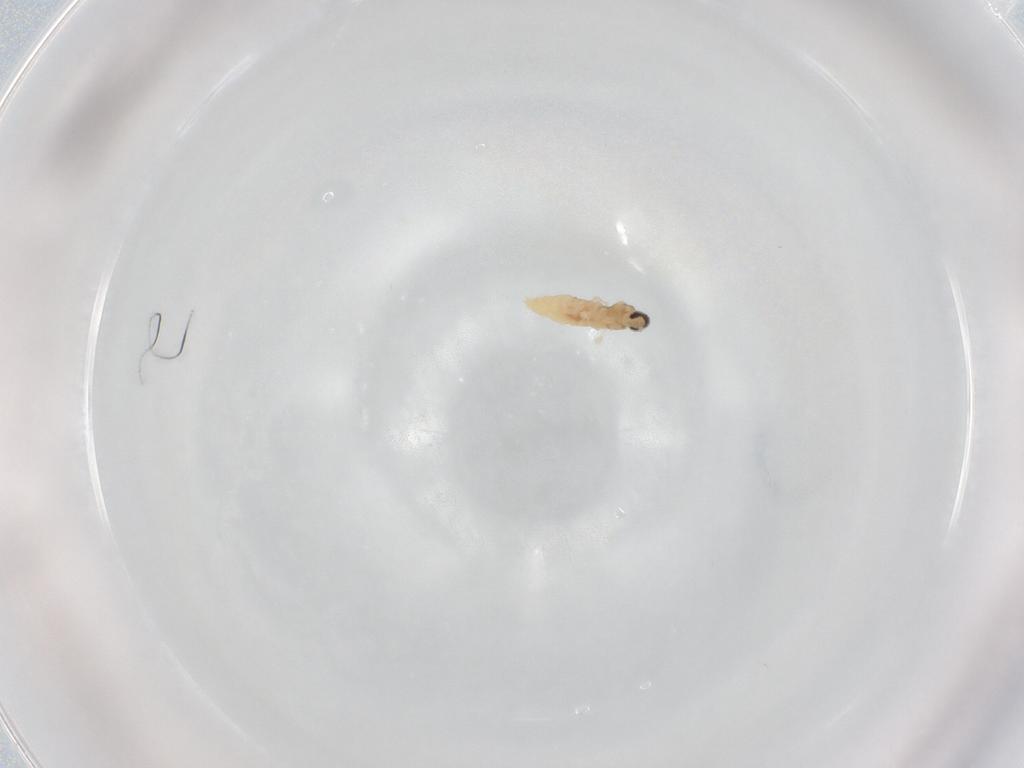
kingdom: Animalia
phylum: Arthropoda
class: Insecta
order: Diptera
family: Cecidomyiidae
